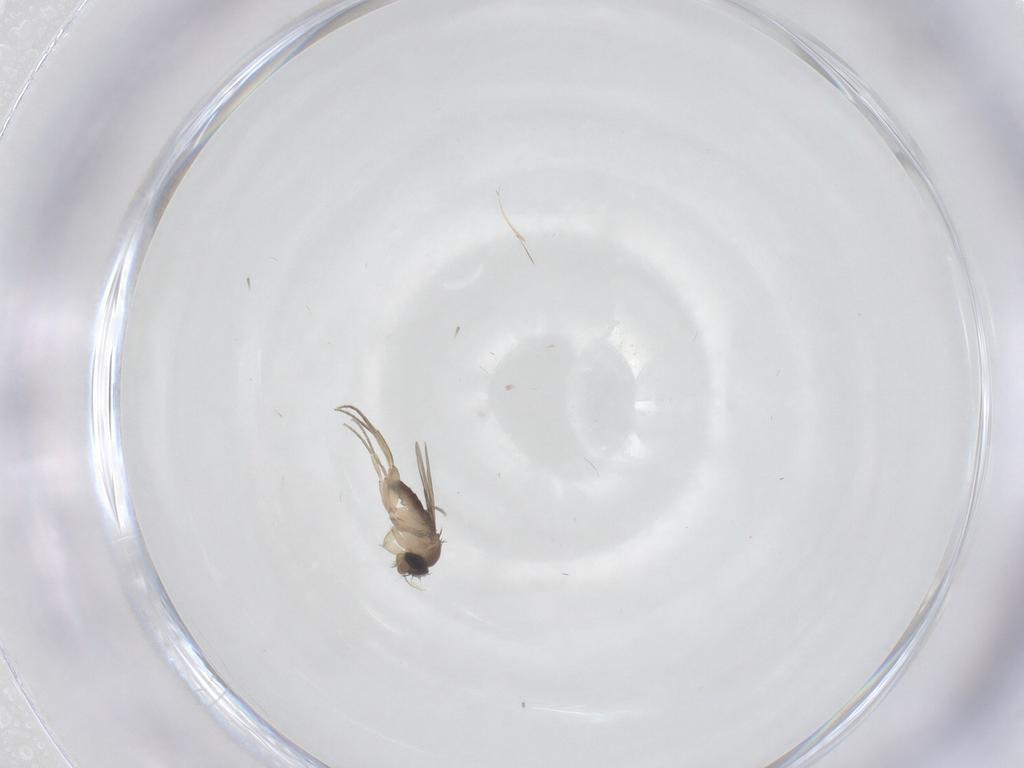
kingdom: Animalia
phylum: Arthropoda
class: Insecta
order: Diptera
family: Phoridae
